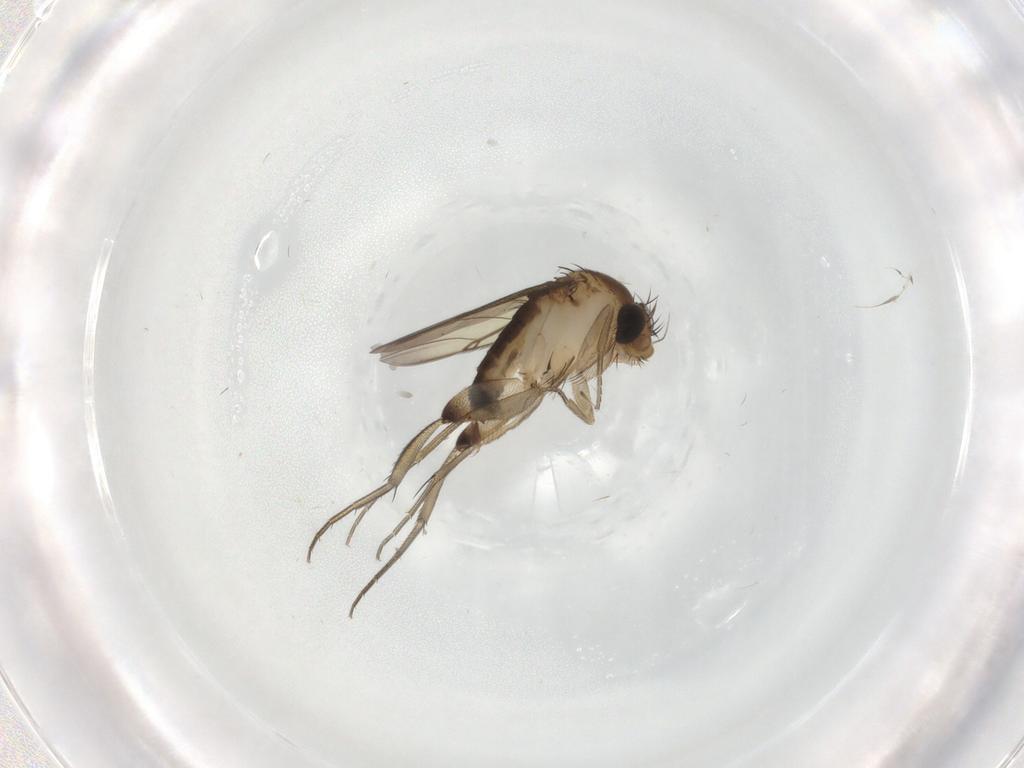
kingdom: Animalia
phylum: Arthropoda
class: Insecta
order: Diptera
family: Phoridae
